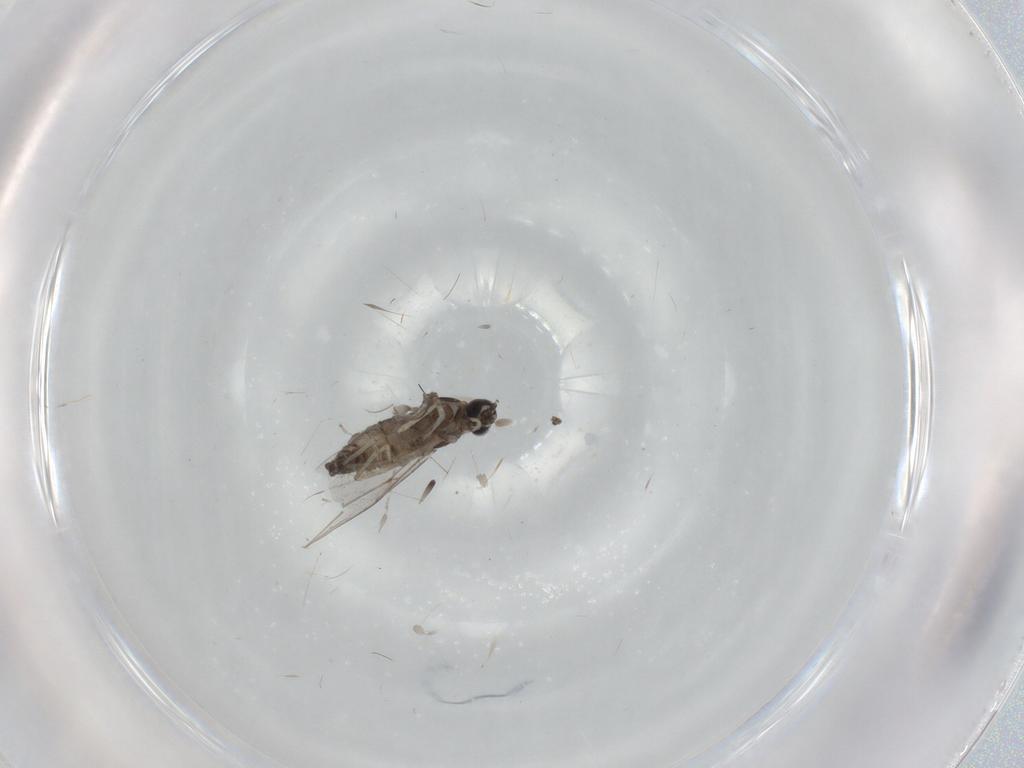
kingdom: Animalia
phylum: Arthropoda
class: Insecta
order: Diptera
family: Cecidomyiidae
